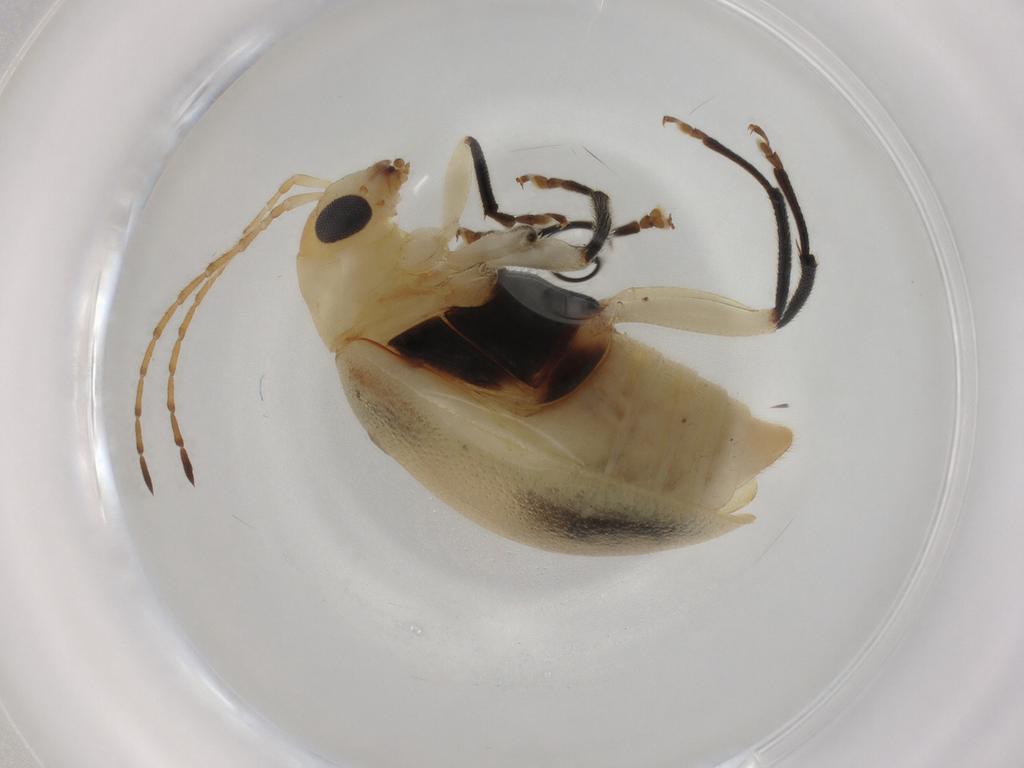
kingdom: Animalia
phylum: Arthropoda
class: Insecta
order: Coleoptera
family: Chrysomelidae
